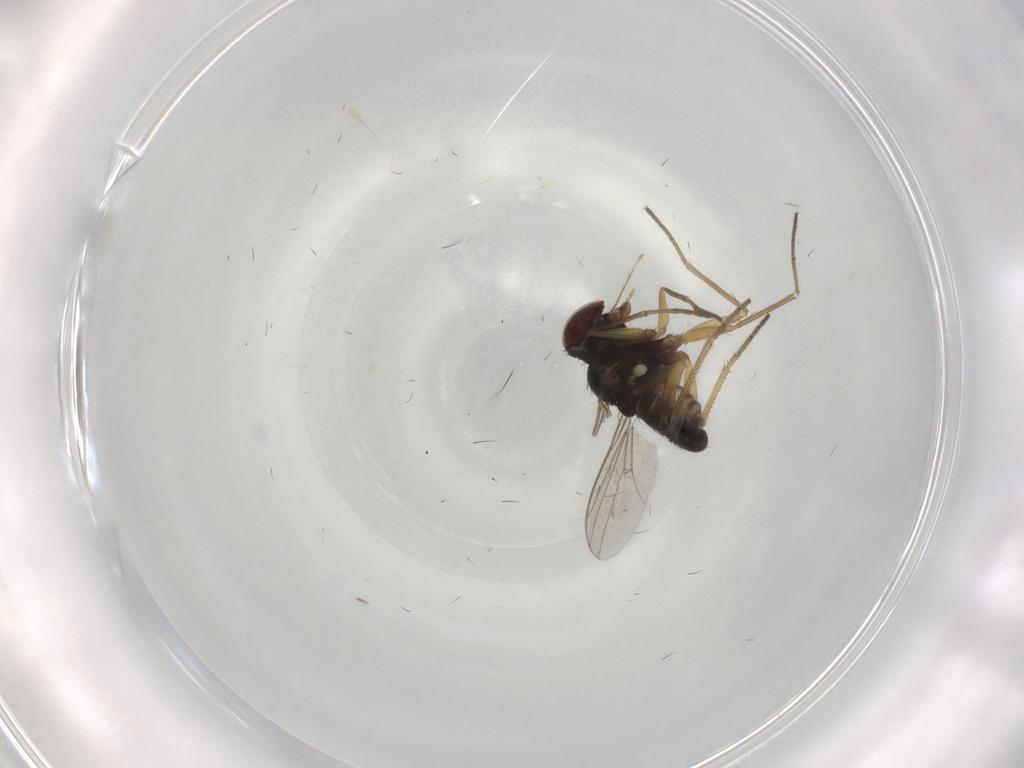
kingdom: Animalia
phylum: Arthropoda
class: Insecta
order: Diptera
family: Dolichopodidae
